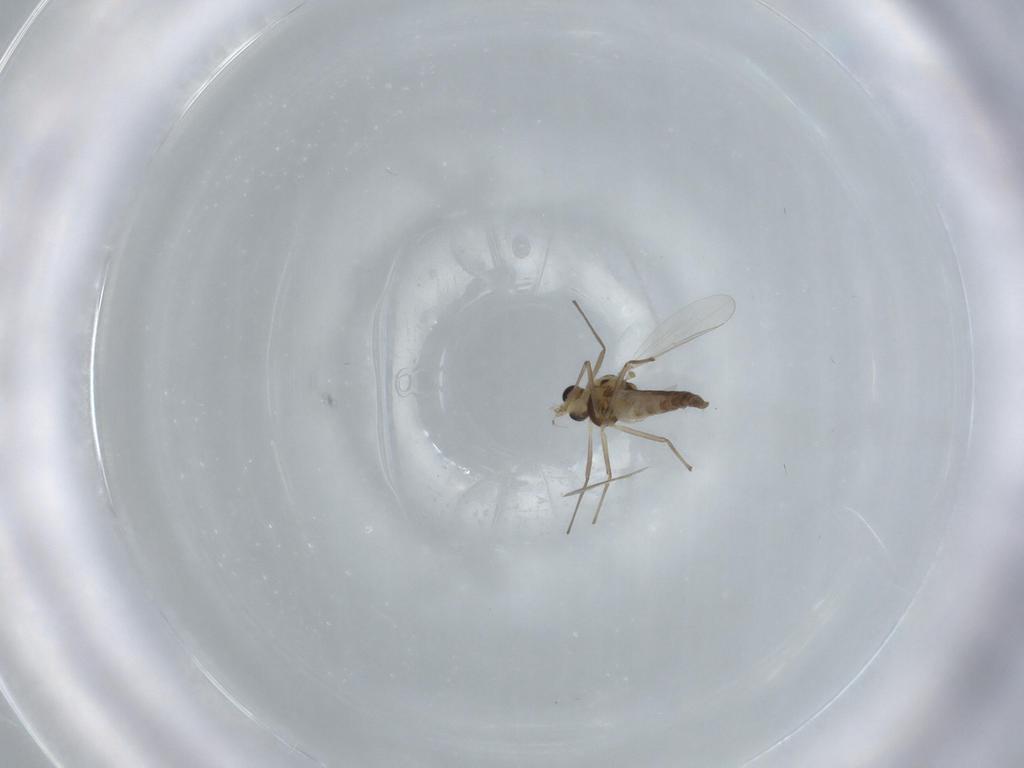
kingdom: Animalia
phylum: Arthropoda
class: Insecta
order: Diptera
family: Chironomidae
